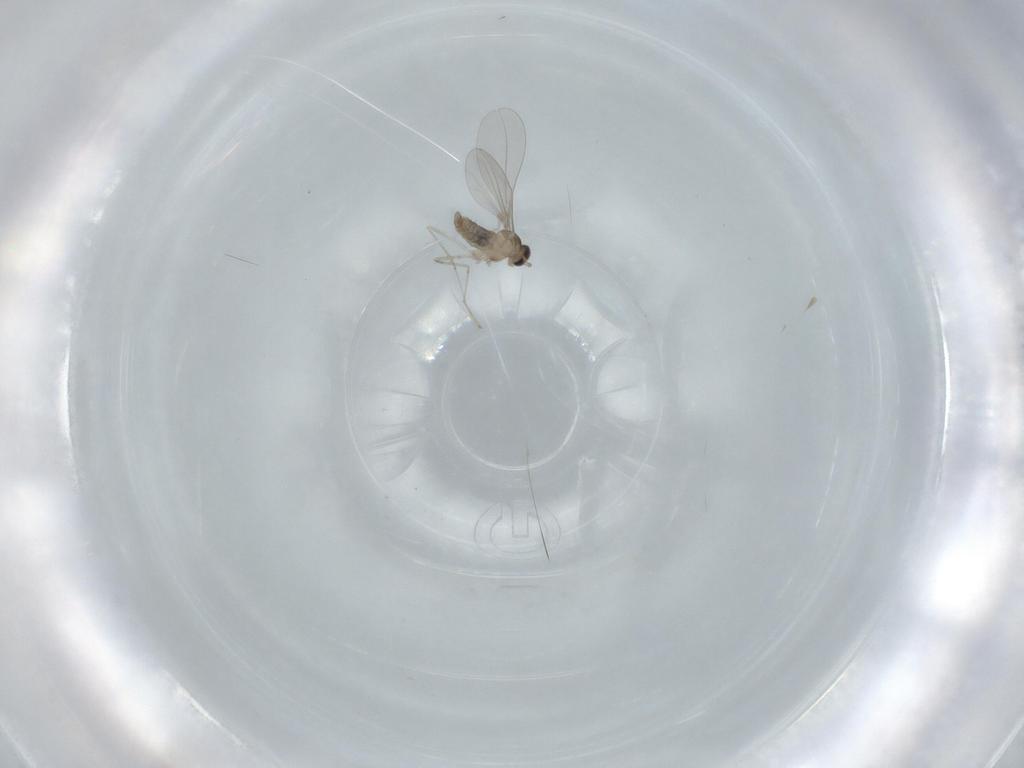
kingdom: Animalia
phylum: Arthropoda
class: Insecta
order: Diptera
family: Cecidomyiidae
